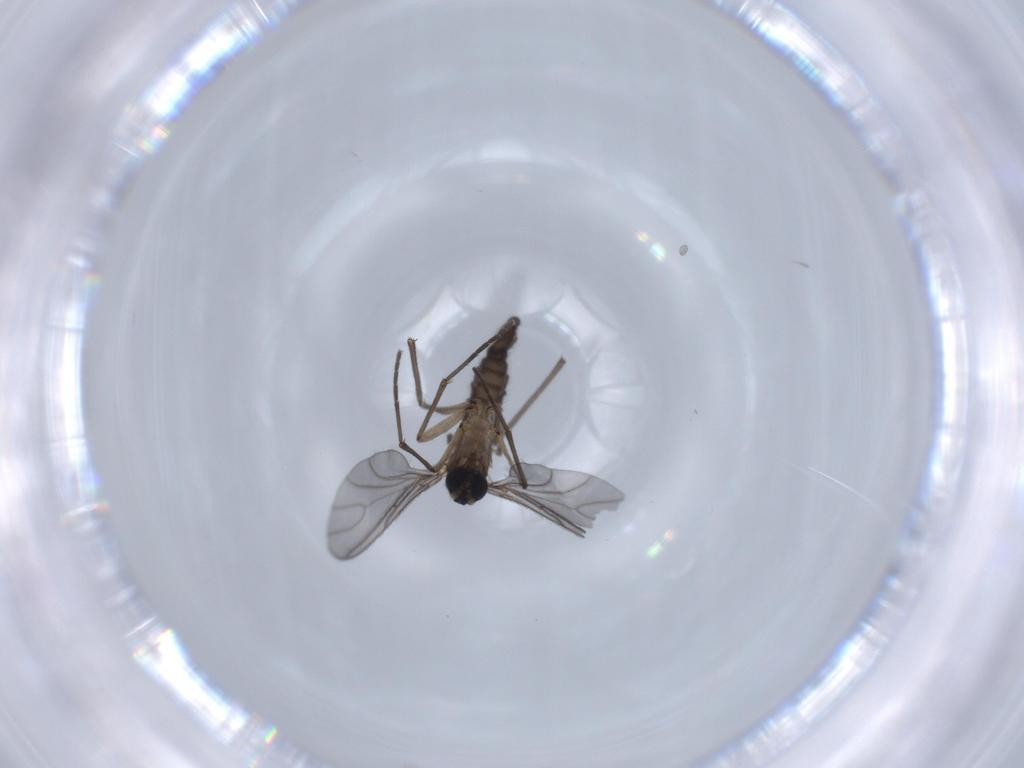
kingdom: Animalia
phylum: Arthropoda
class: Insecta
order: Diptera
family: Sciaridae
